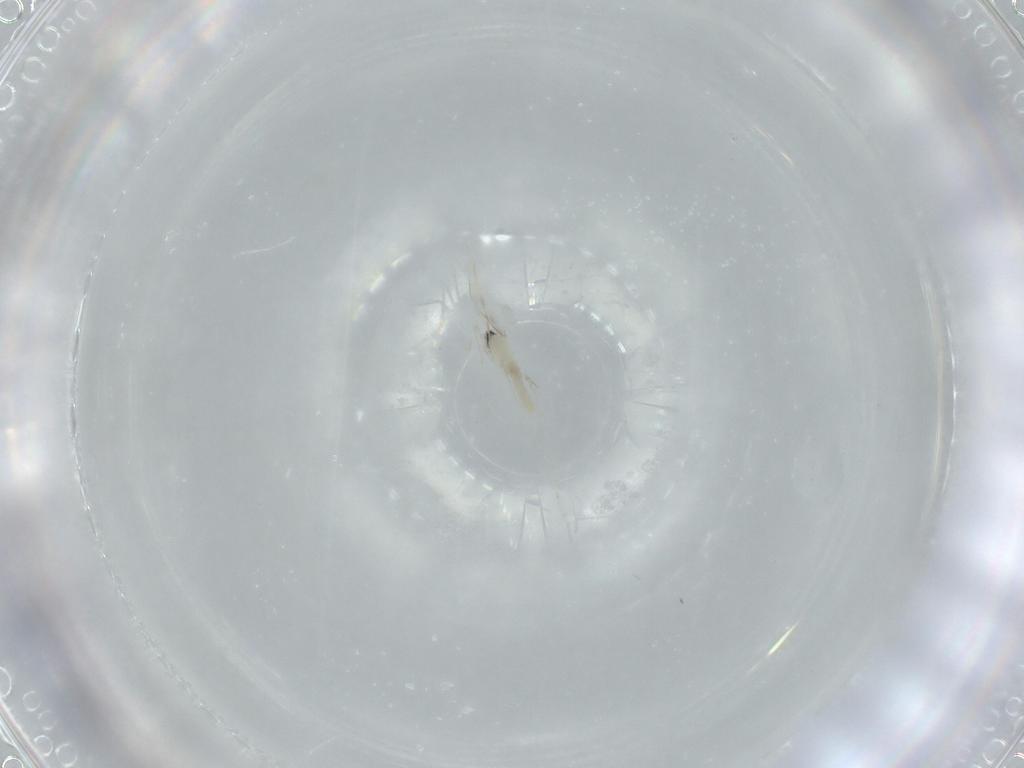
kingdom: Animalia
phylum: Arthropoda
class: Insecta
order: Diptera
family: Cecidomyiidae
